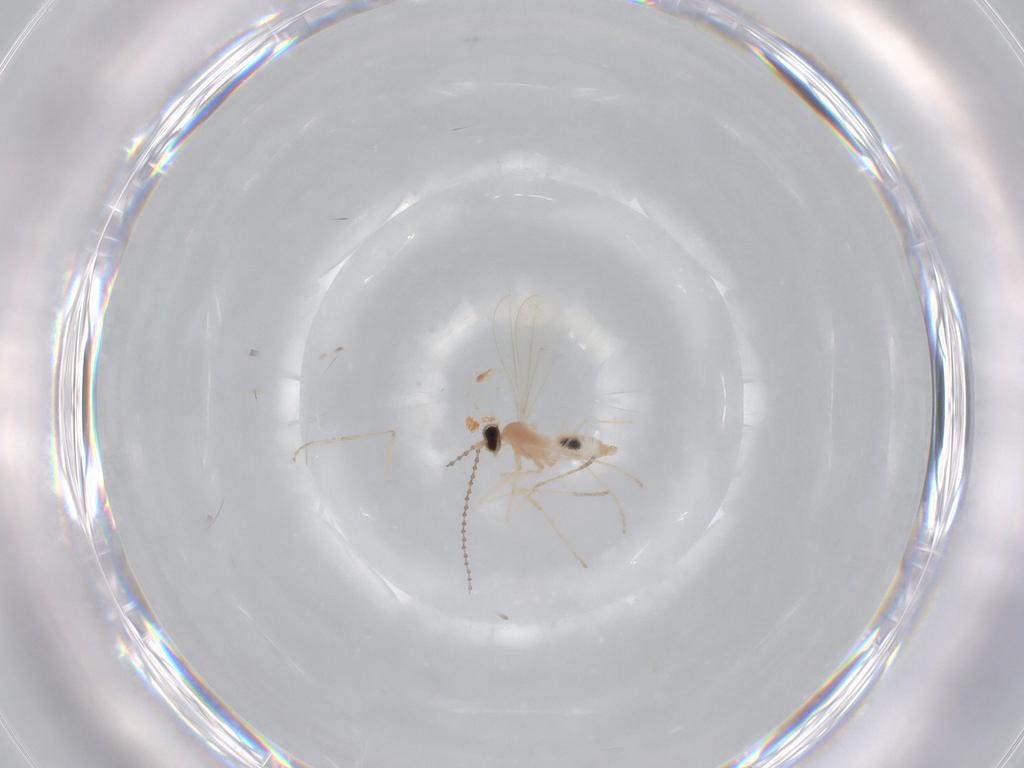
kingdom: Animalia
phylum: Arthropoda
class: Insecta
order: Diptera
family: Cecidomyiidae
